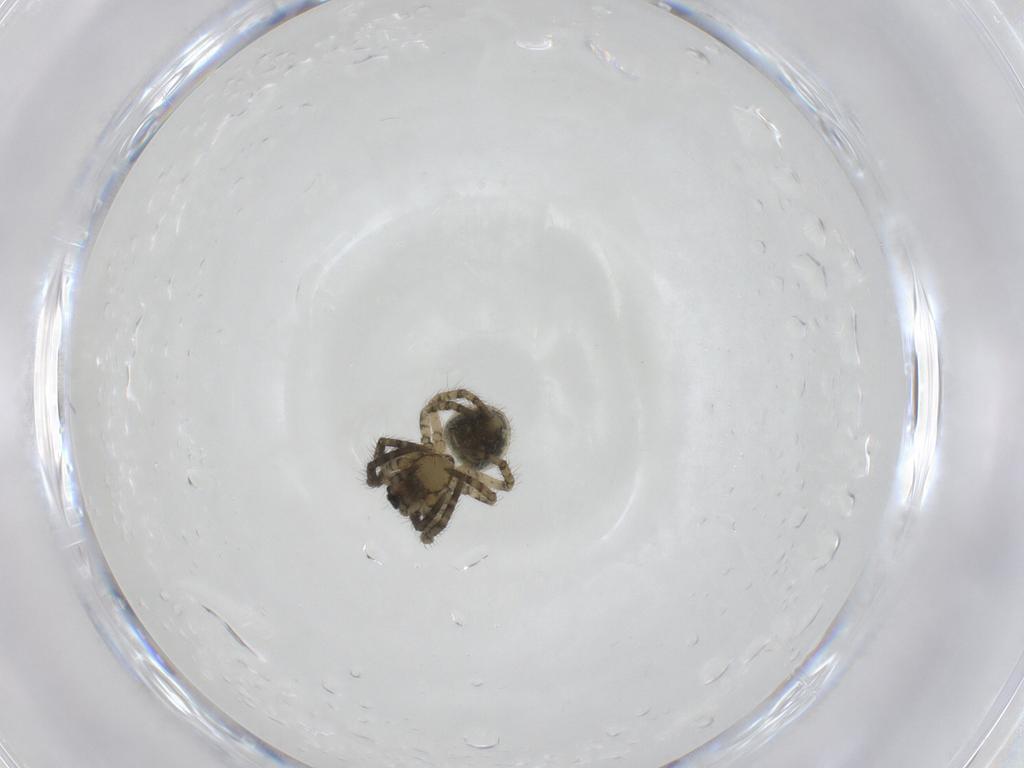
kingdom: Animalia
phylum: Arthropoda
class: Arachnida
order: Araneae
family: Araneidae
